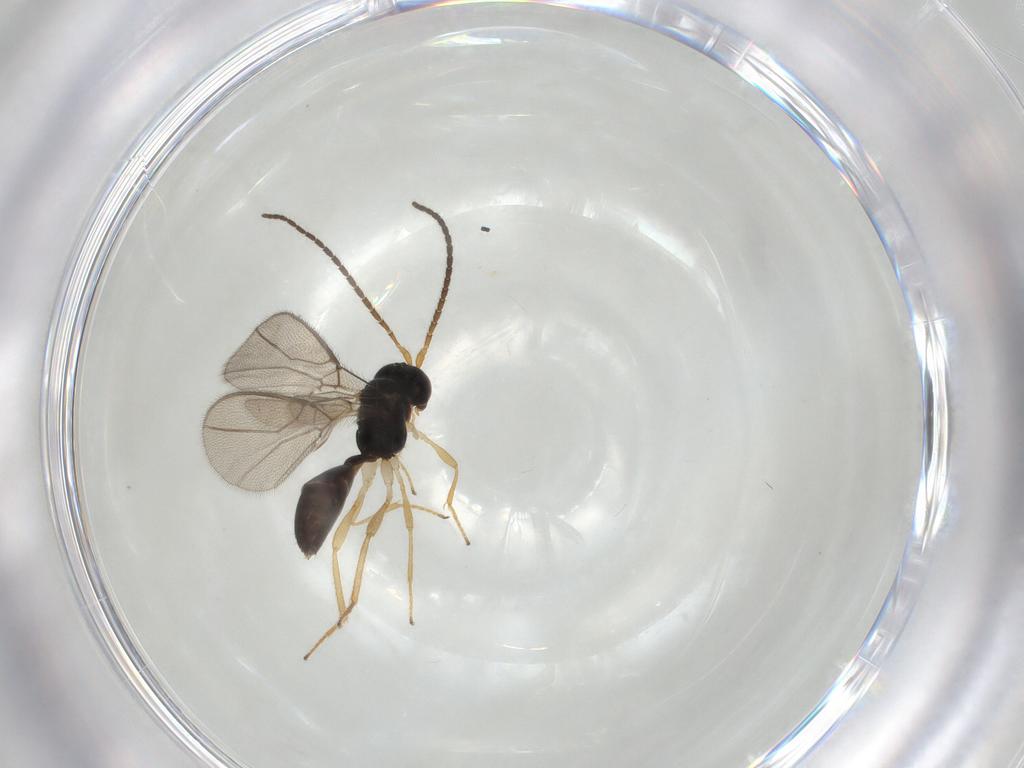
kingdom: Animalia
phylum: Arthropoda
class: Insecta
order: Hymenoptera
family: Braconidae
